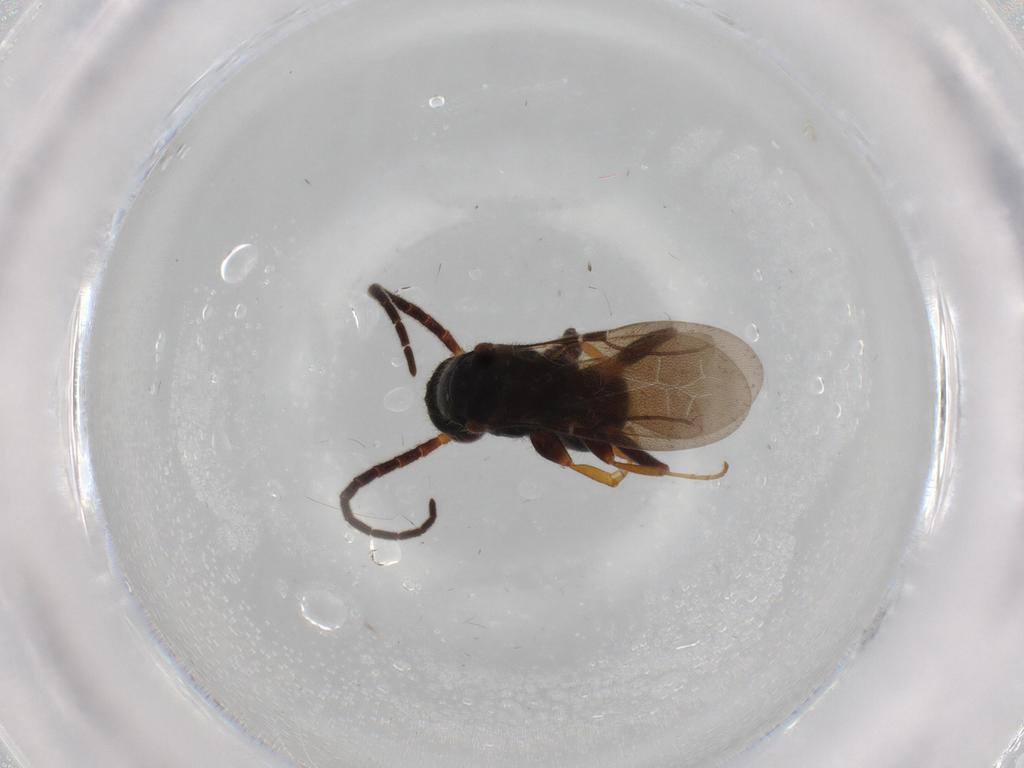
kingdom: Animalia
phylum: Arthropoda
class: Insecta
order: Hymenoptera
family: Bethylidae
